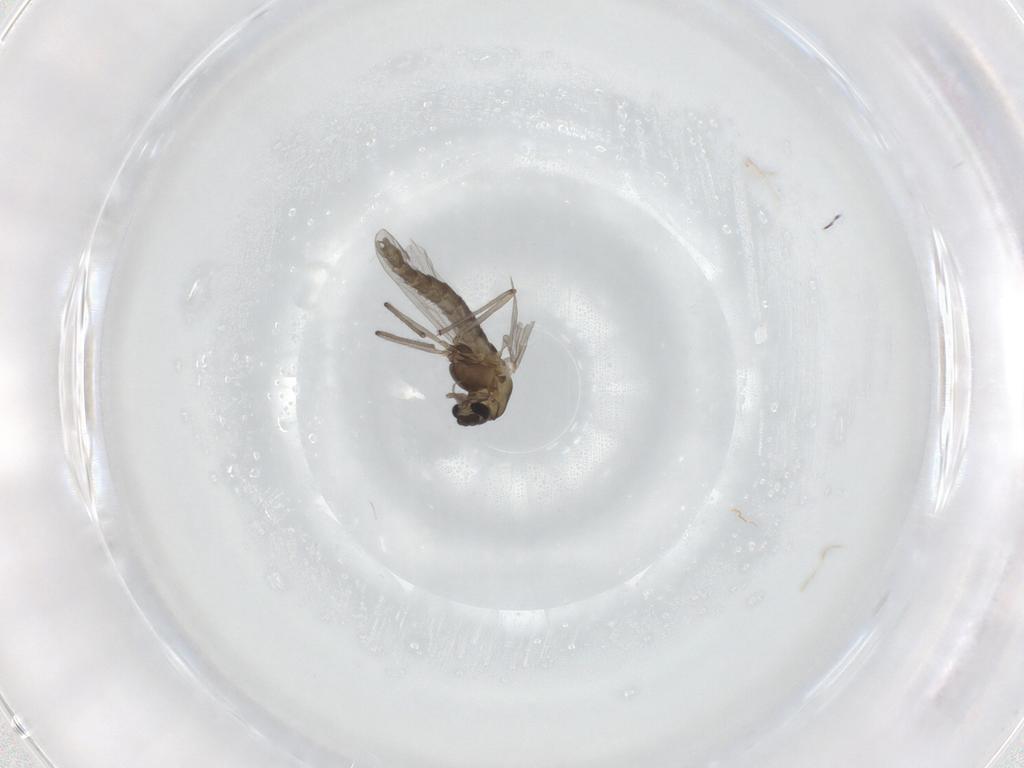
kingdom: Animalia
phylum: Arthropoda
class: Insecta
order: Diptera
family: Chironomidae
